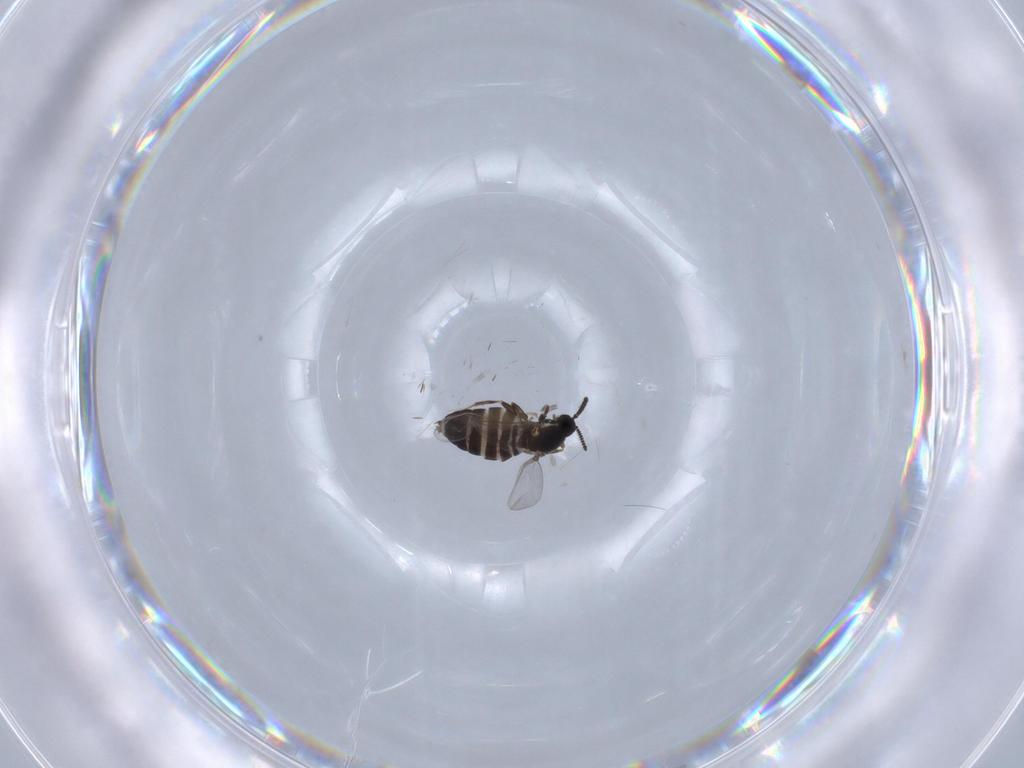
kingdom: Animalia
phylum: Arthropoda
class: Insecta
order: Diptera
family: Scatopsidae
